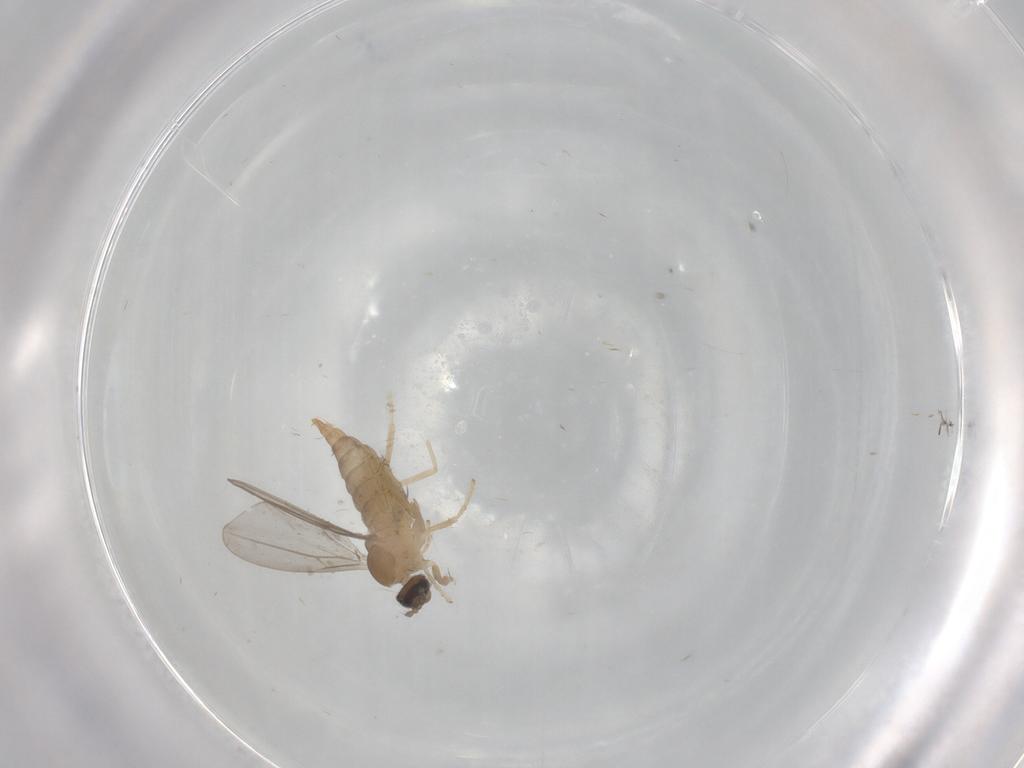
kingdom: Animalia
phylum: Arthropoda
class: Insecta
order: Diptera
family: Cecidomyiidae
